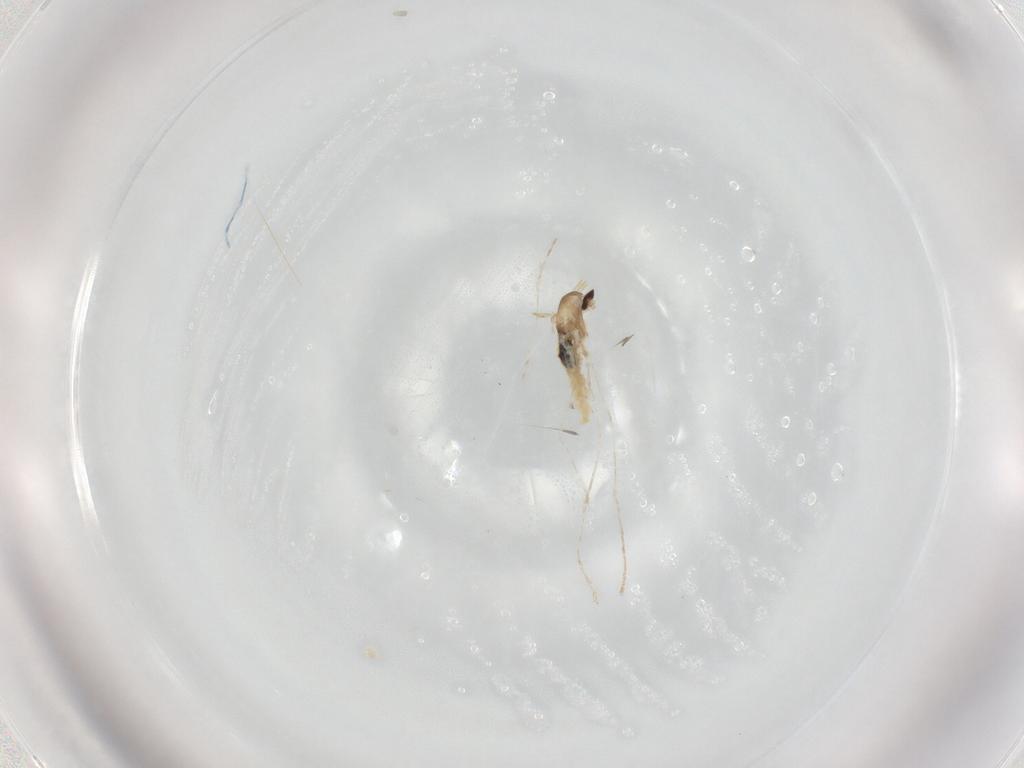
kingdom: Animalia
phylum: Arthropoda
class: Insecta
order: Diptera
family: Cecidomyiidae
